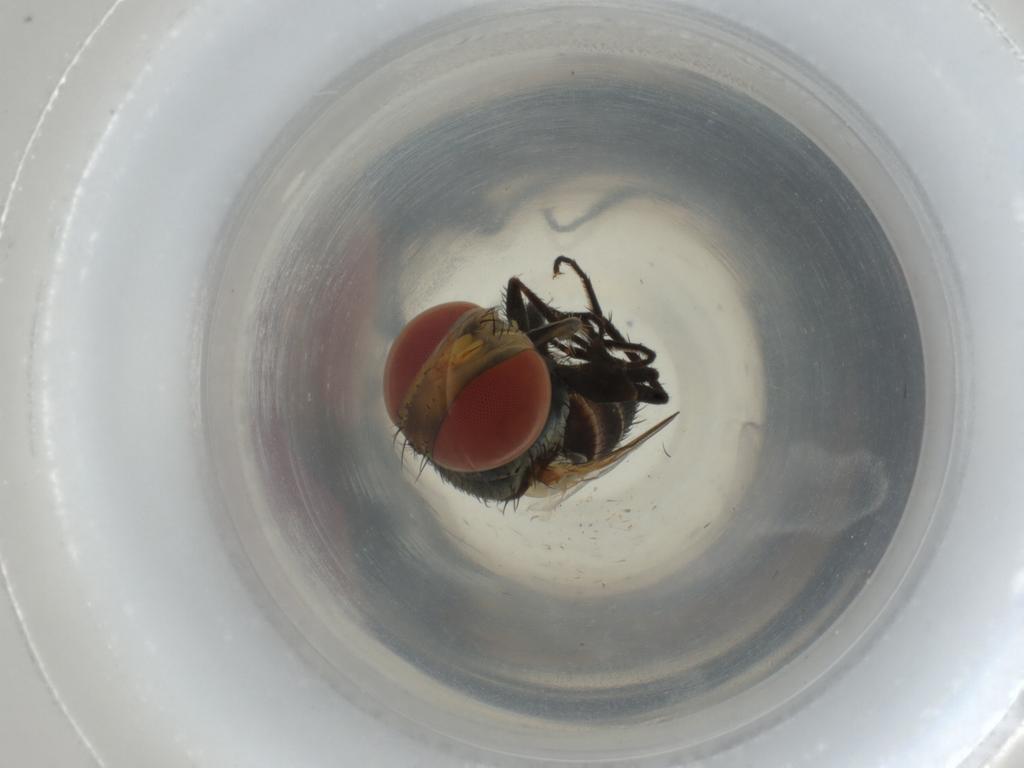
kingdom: Animalia
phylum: Arthropoda
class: Insecta
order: Diptera
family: Sarcophagidae
